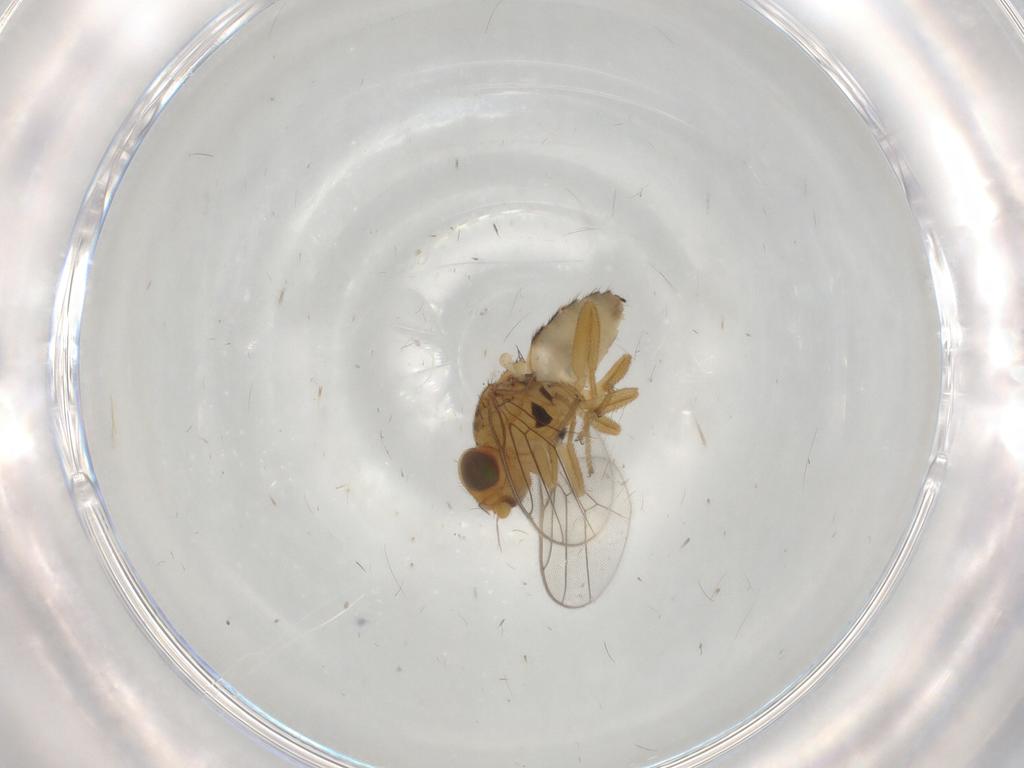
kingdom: Animalia
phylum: Arthropoda
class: Insecta
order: Diptera
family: Chloropidae
